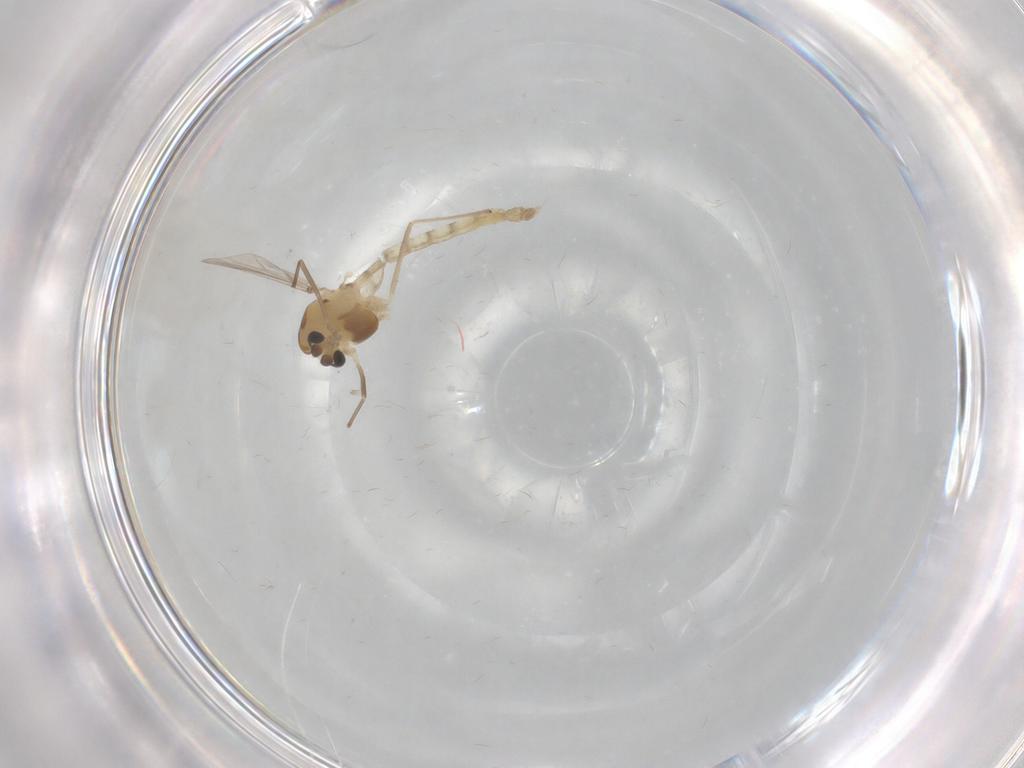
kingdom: Animalia
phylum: Arthropoda
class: Insecta
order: Diptera
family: Chironomidae
